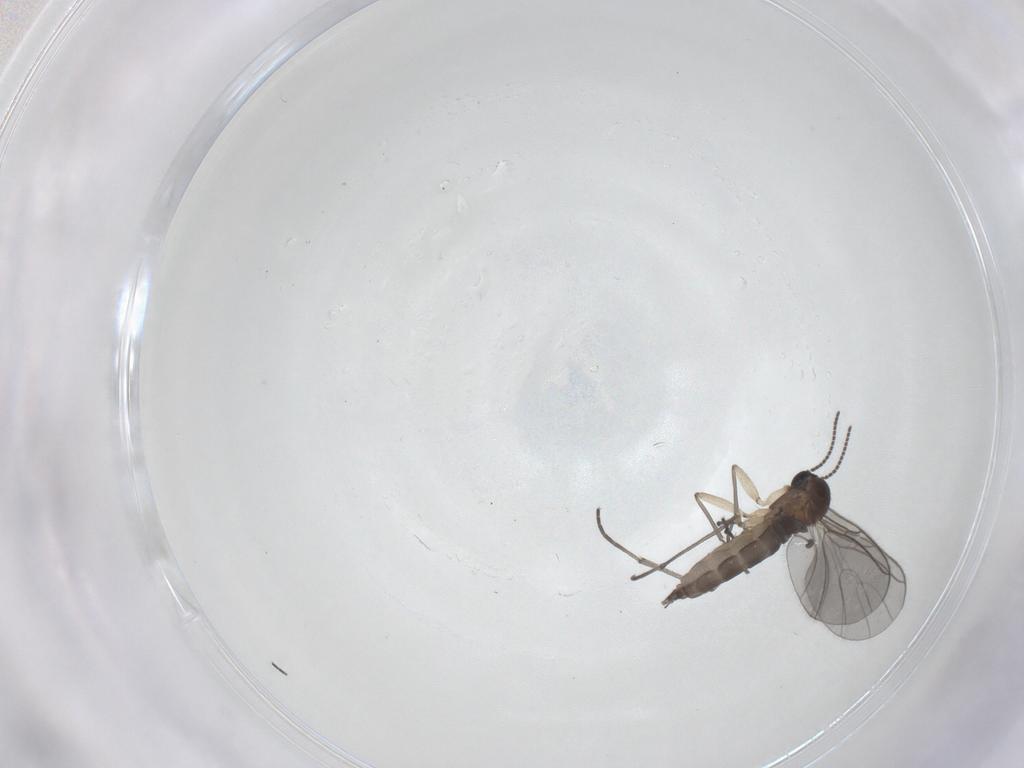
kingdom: Animalia
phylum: Arthropoda
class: Insecta
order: Diptera
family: Sciaridae
